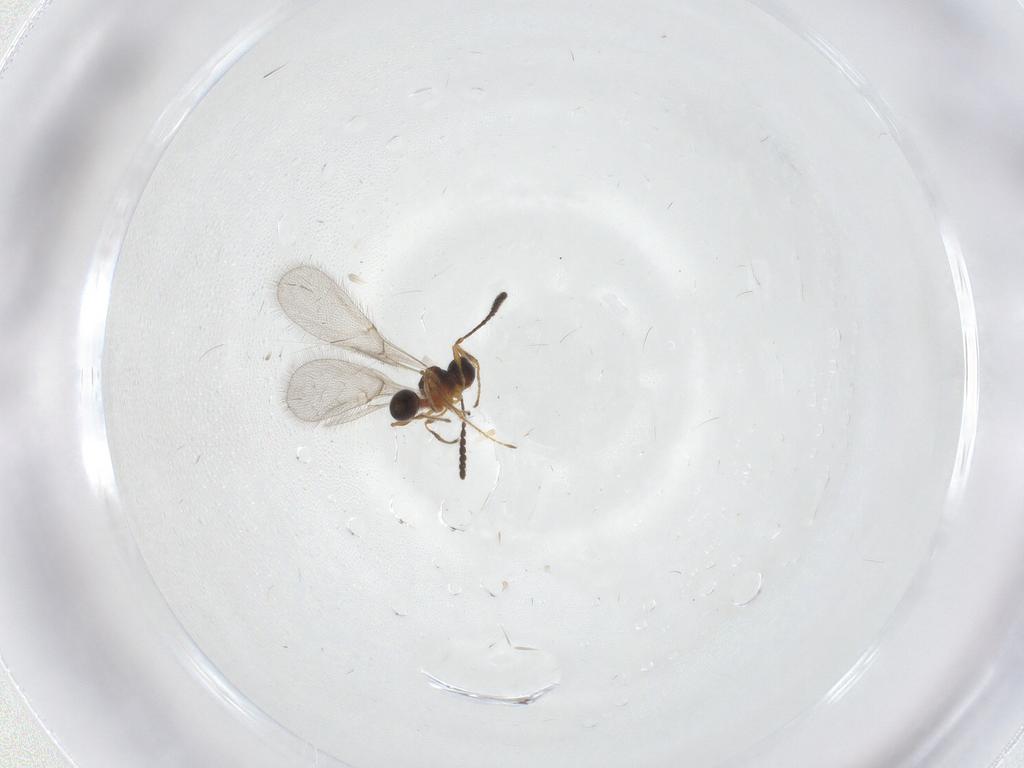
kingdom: Animalia
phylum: Arthropoda
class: Insecta
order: Hymenoptera
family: Diapriidae
